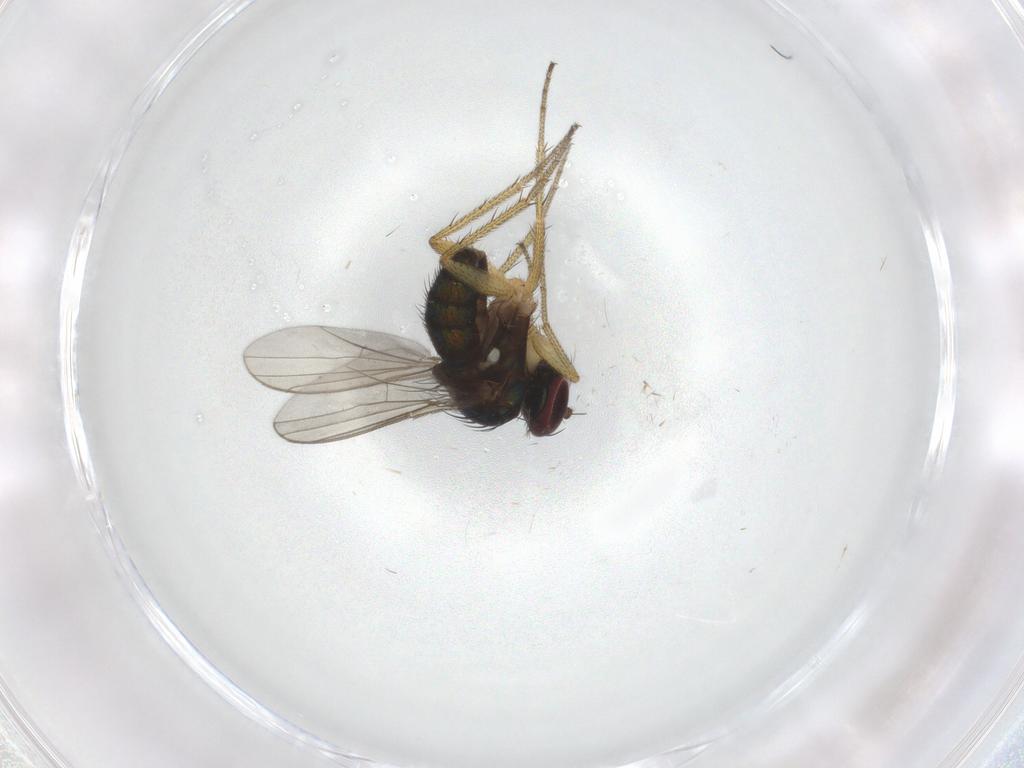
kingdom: Animalia
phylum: Arthropoda
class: Insecta
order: Diptera
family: Dolichopodidae
